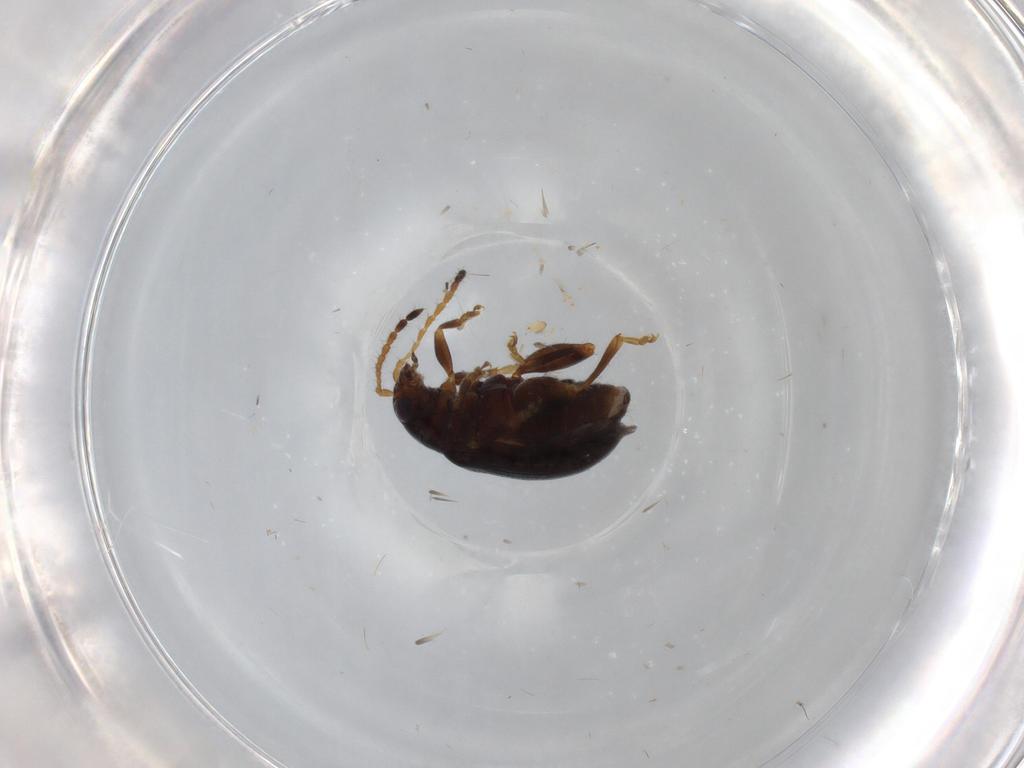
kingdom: Animalia
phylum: Arthropoda
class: Insecta
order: Coleoptera
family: Chrysomelidae
